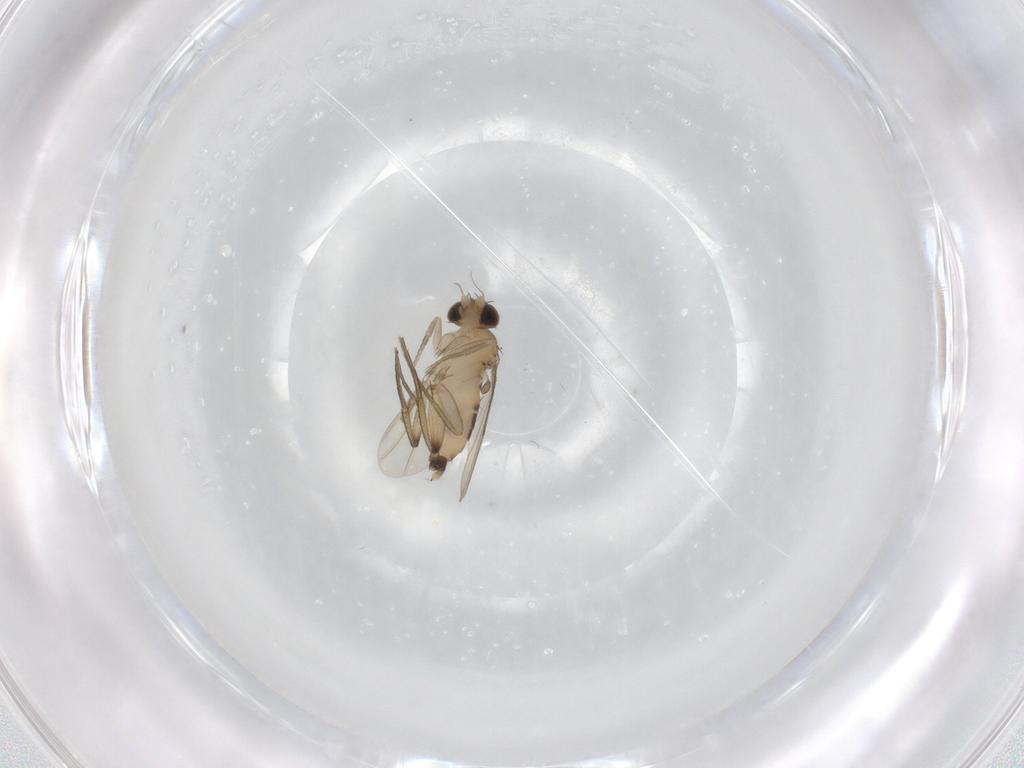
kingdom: Animalia
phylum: Arthropoda
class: Insecta
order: Diptera
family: Phoridae
